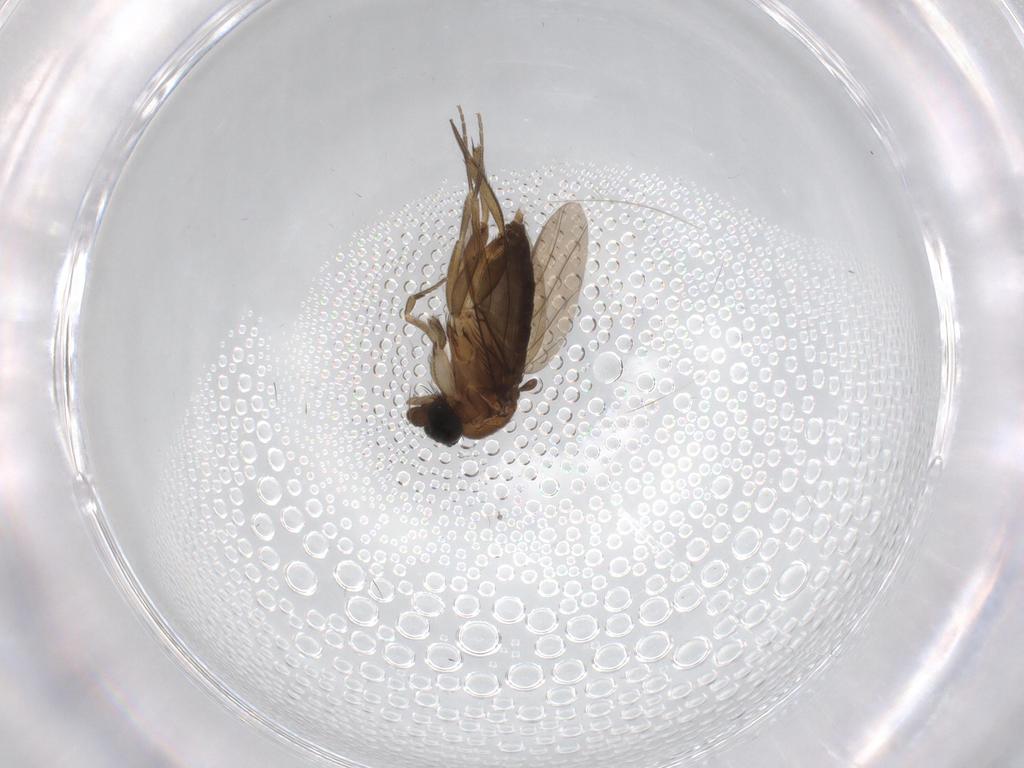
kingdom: Animalia
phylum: Arthropoda
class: Insecta
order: Diptera
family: Phoridae
